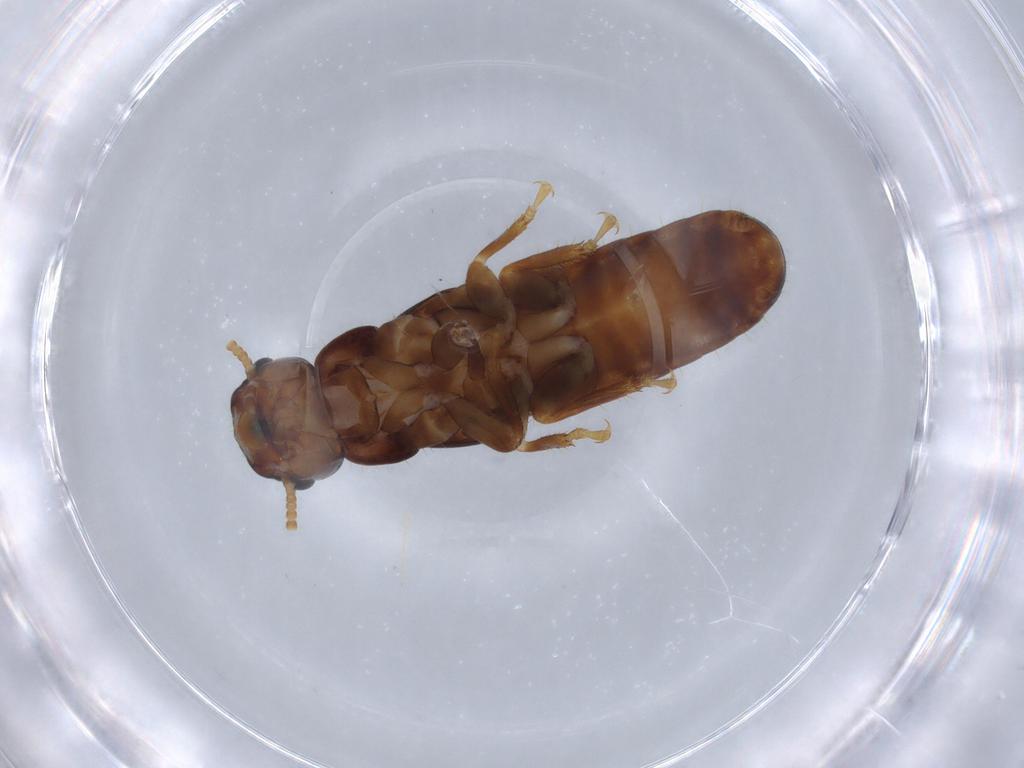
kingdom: Animalia
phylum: Arthropoda
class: Insecta
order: Blattodea
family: Kalotermitidae
